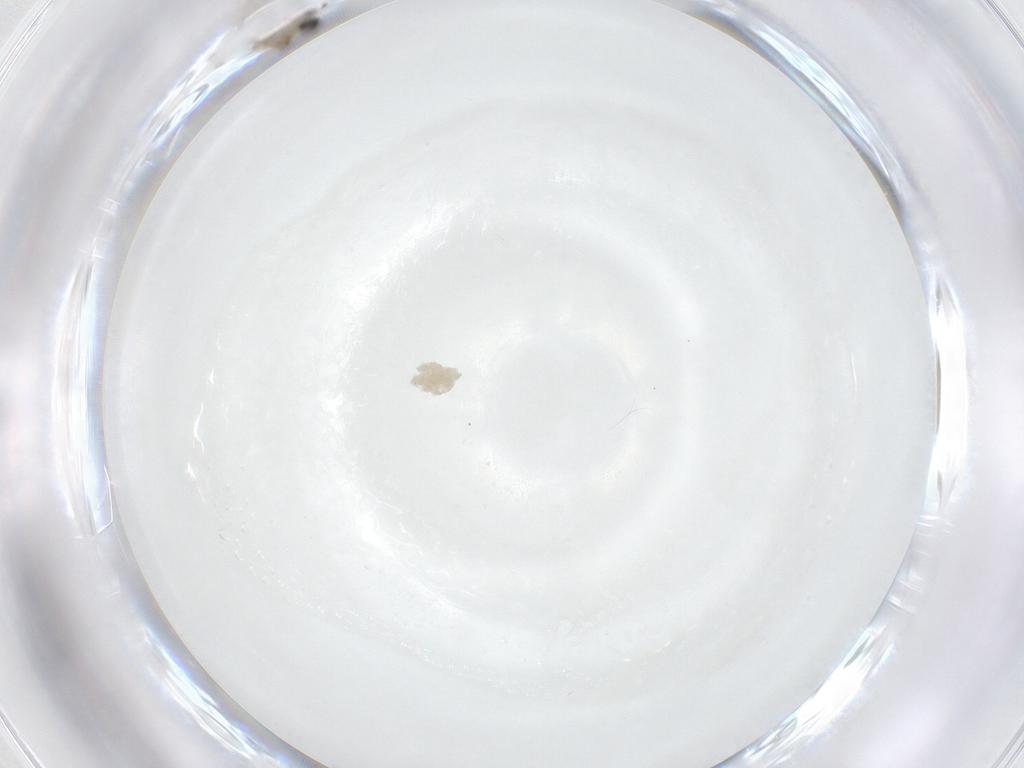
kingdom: Animalia
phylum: Arthropoda
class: Insecta
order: Diptera
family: Cecidomyiidae
